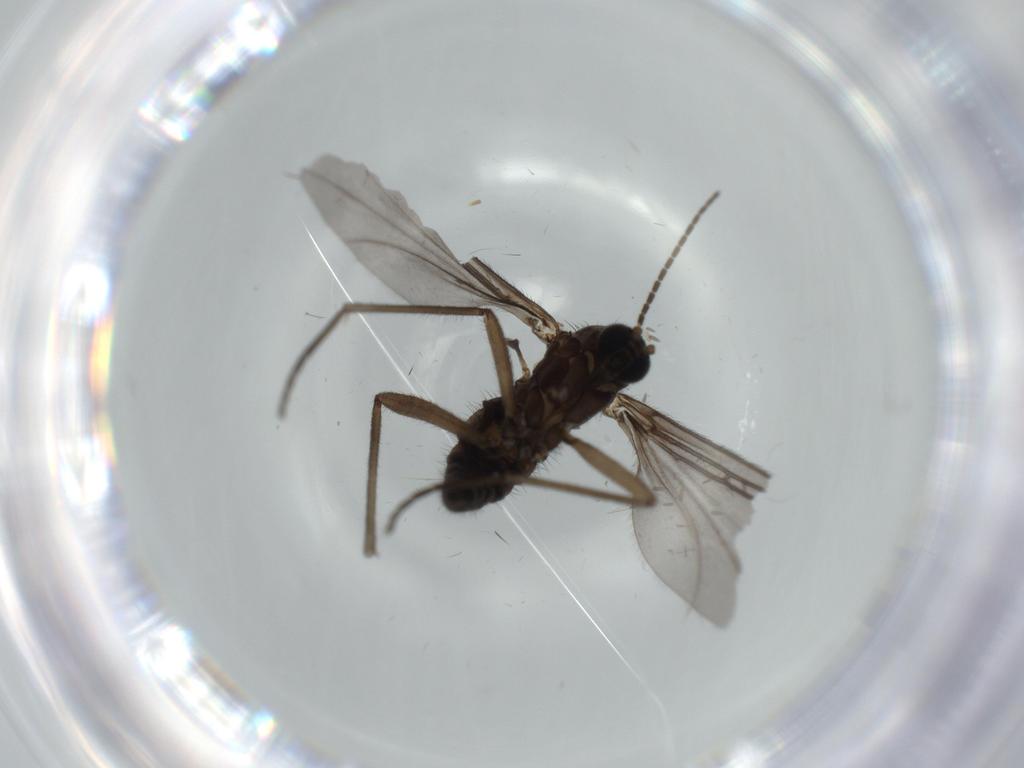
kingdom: Animalia
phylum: Arthropoda
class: Insecta
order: Diptera
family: Sciaridae
